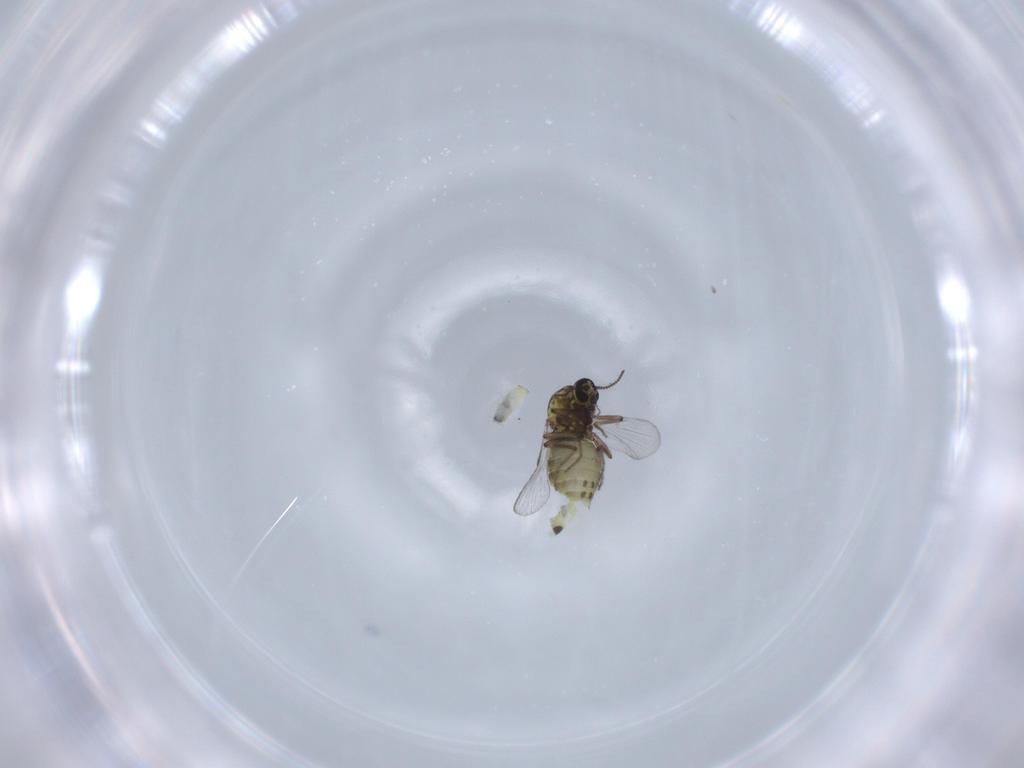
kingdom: Animalia
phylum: Arthropoda
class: Insecta
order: Diptera
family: Ceratopogonidae
